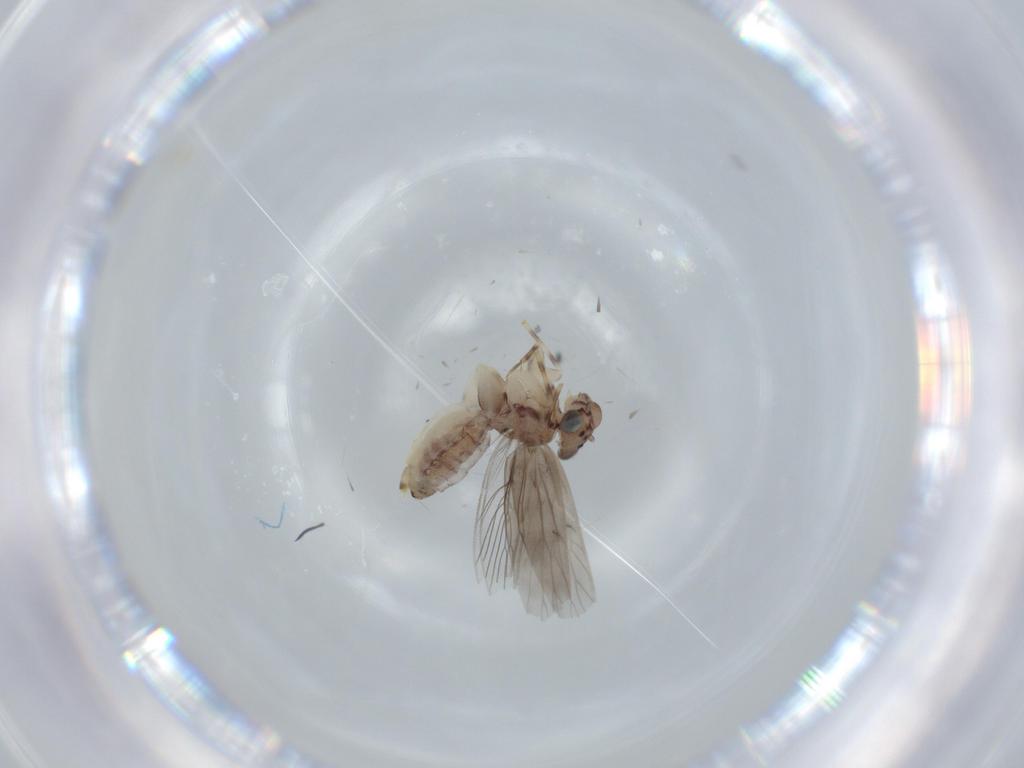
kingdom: Animalia
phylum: Arthropoda
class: Insecta
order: Psocodea
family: Lepidopsocidae
